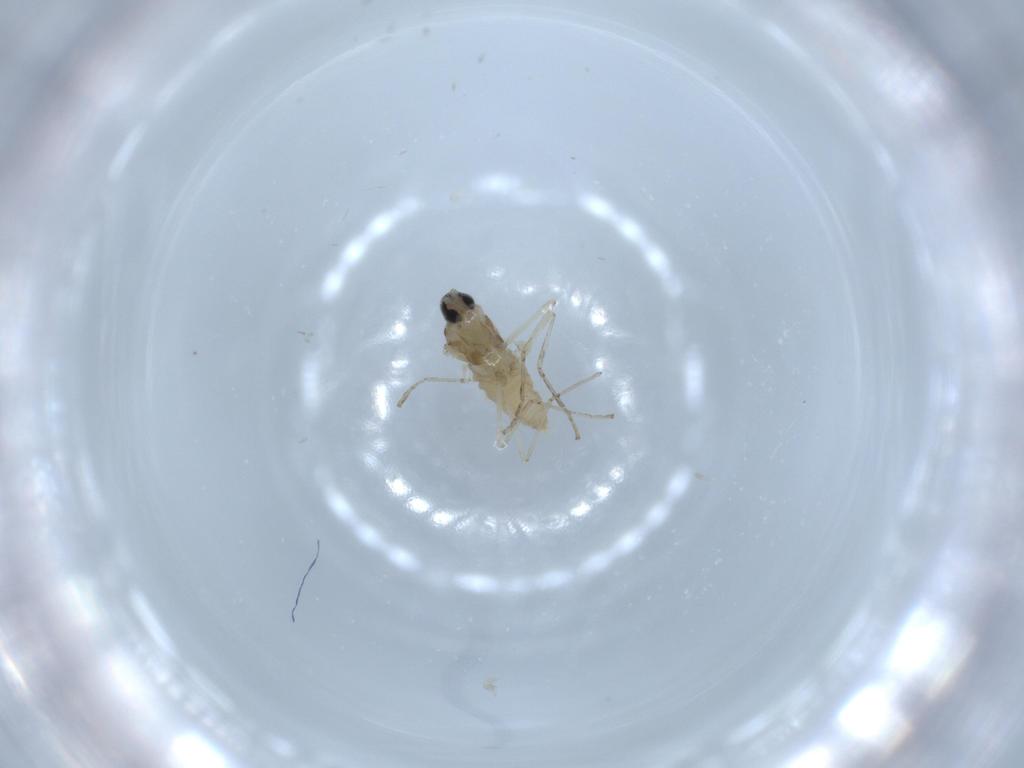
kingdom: Animalia
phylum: Arthropoda
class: Insecta
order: Diptera
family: Cecidomyiidae
